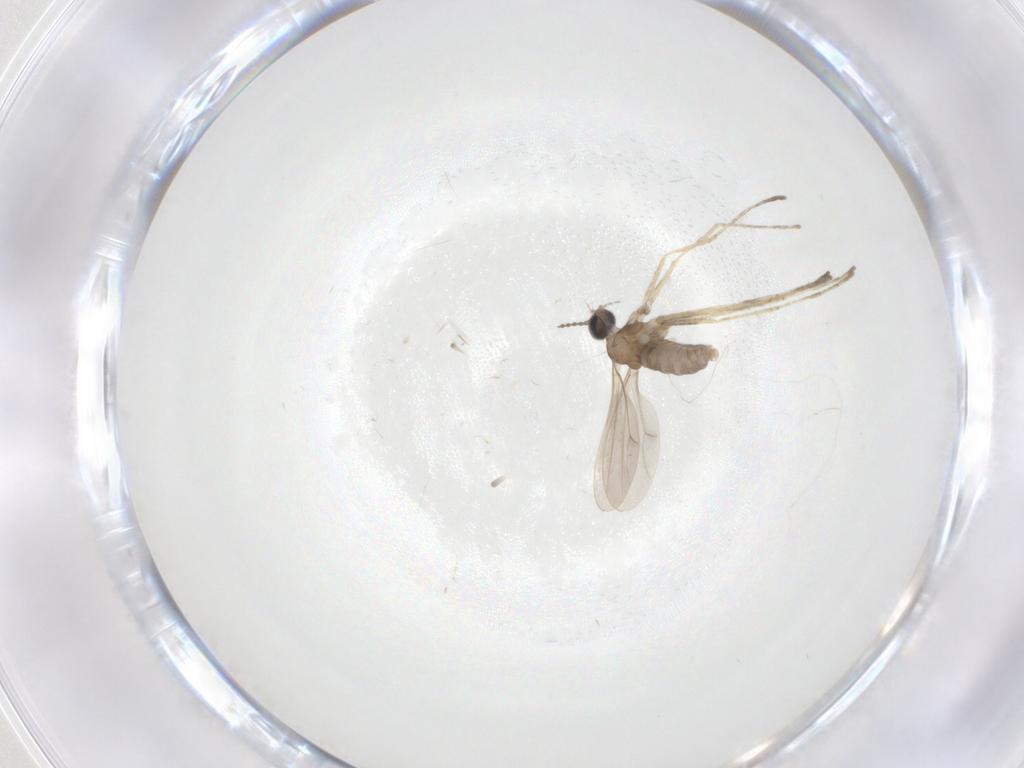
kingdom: Animalia
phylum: Arthropoda
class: Insecta
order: Diptera
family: Cecidomyiidae
